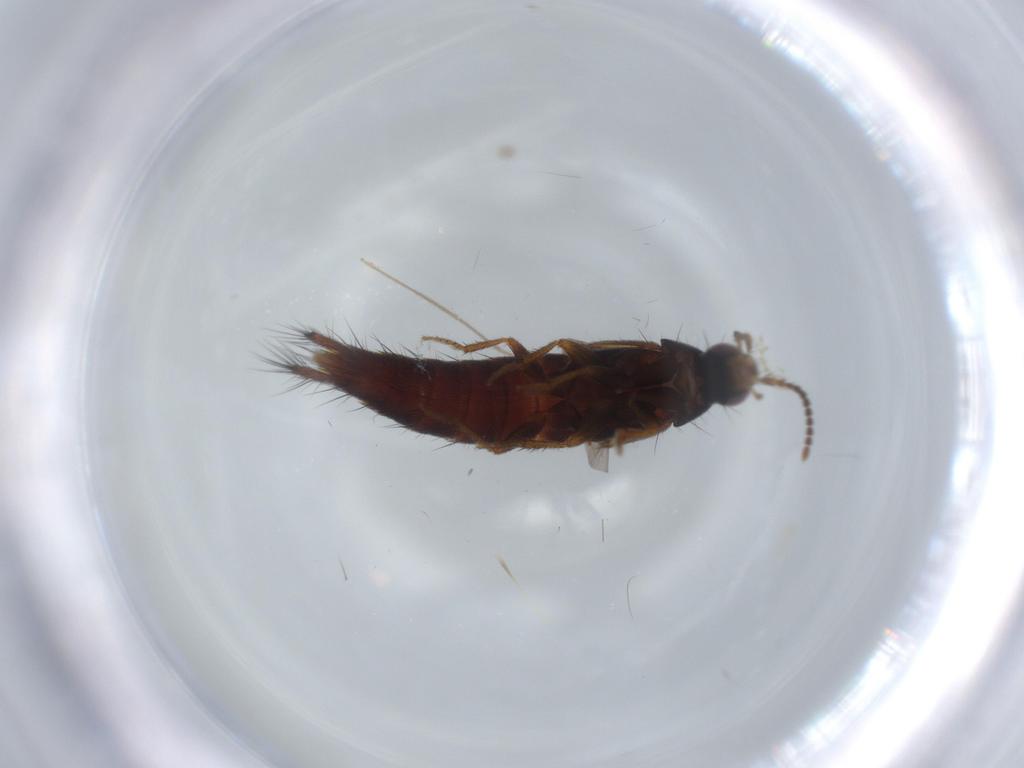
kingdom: Animalia
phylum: Arthropoda
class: Insecta
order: Coleoptera
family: Staphylinidae
